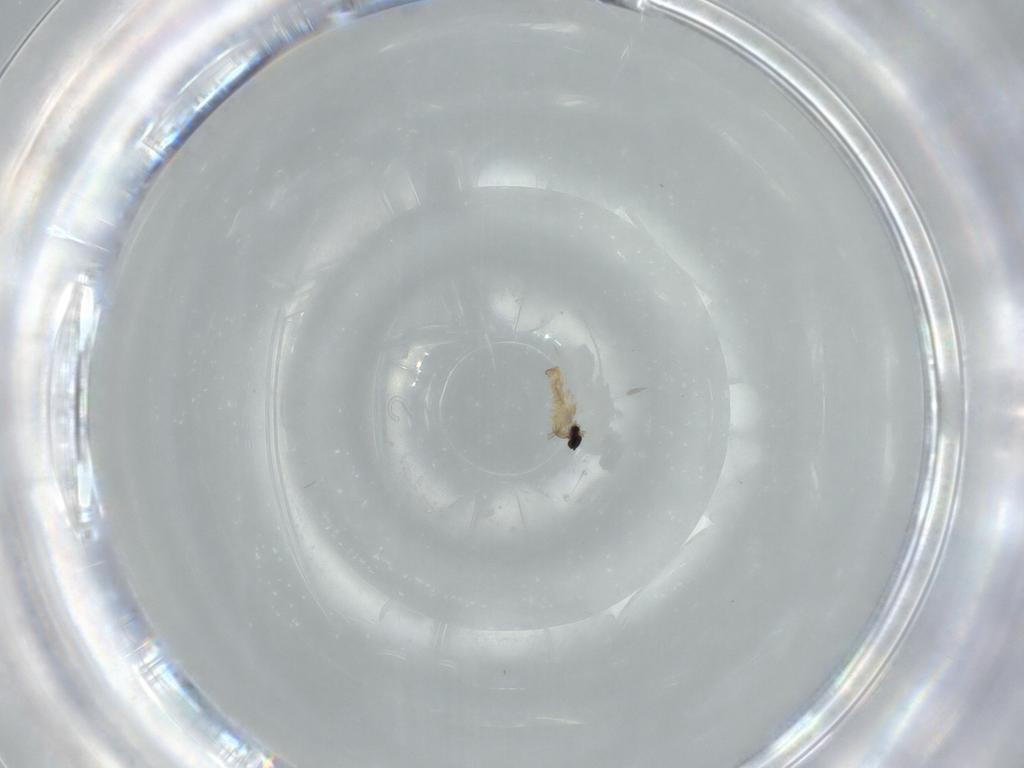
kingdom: Animalia
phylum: Arthropoda
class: Insecta
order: Diptera
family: Cecidomyiidae
